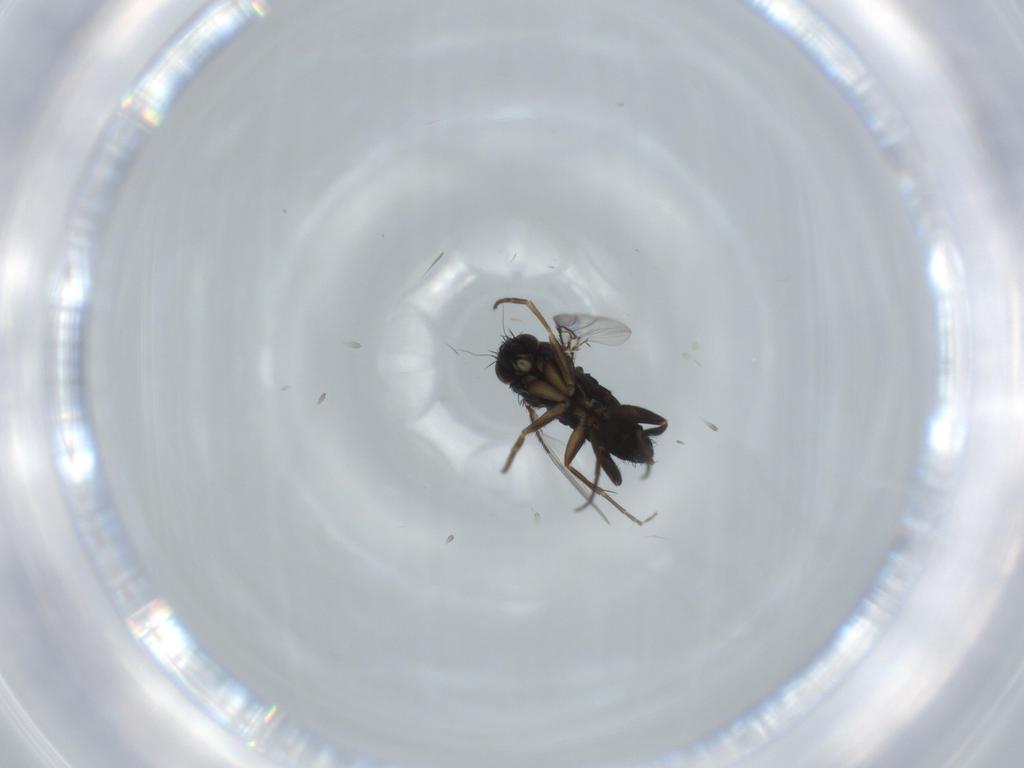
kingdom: Animalia
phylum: Arthropoda
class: Insecta
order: Diptera
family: Phoridae
